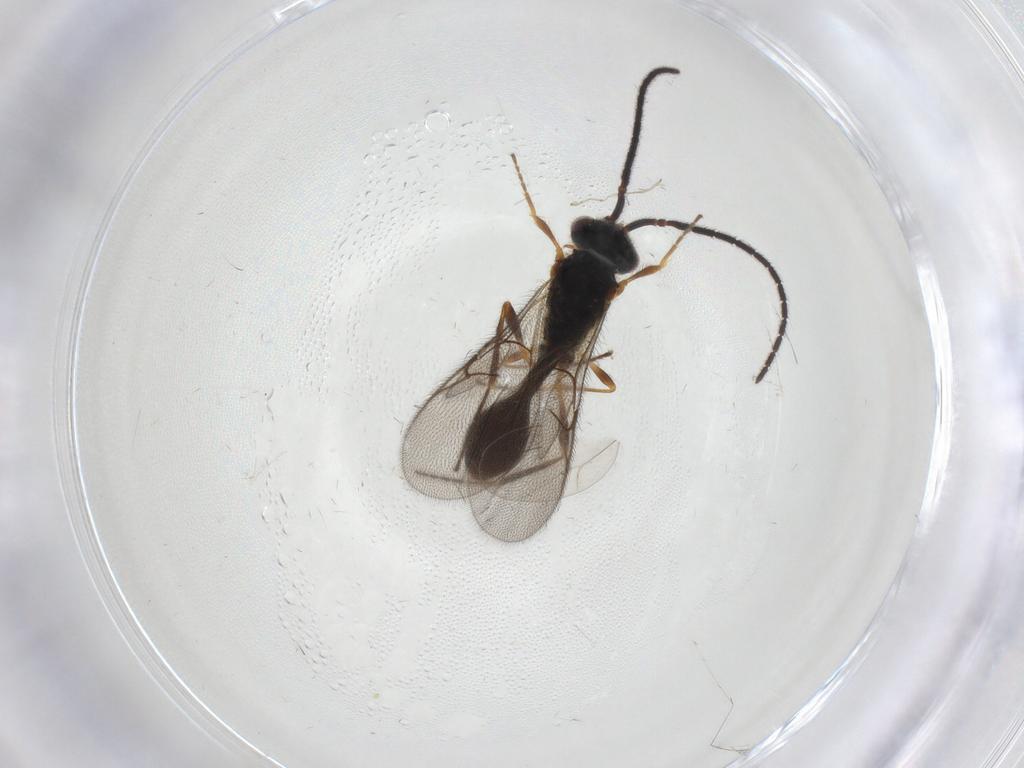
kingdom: Animalia
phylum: Arthropoda
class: Insecta
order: Hymenoptera
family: Diapriidae
